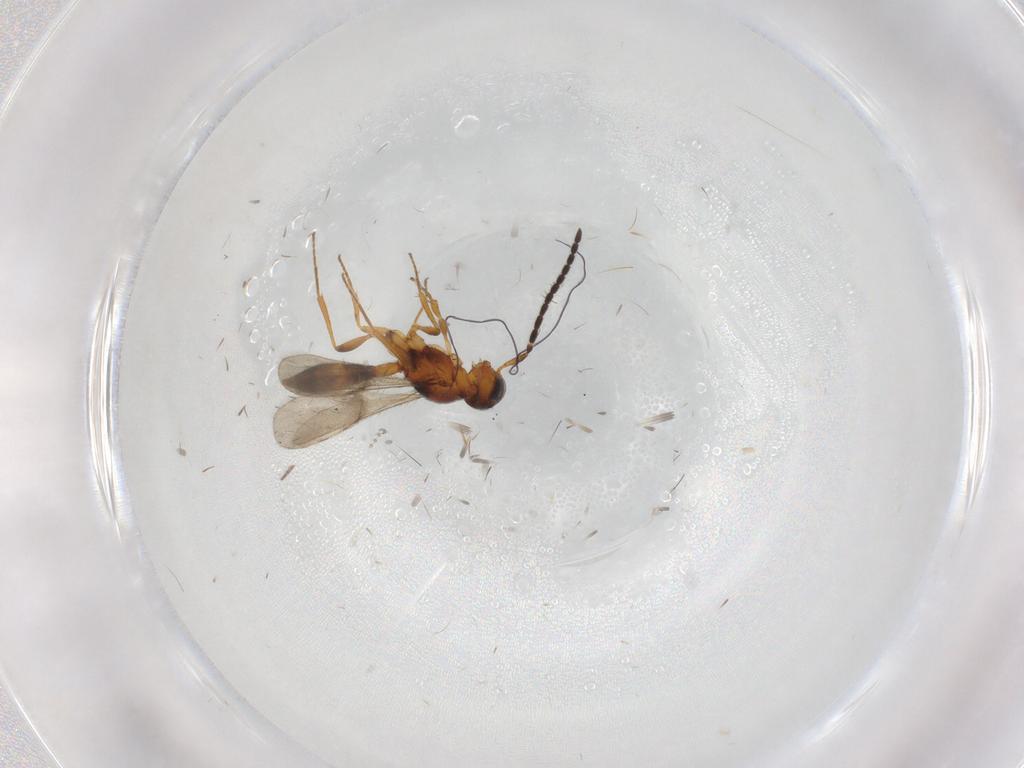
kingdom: Animalia
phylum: Arthropoda
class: Insecta
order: Hymenoptera
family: Scelionidae
